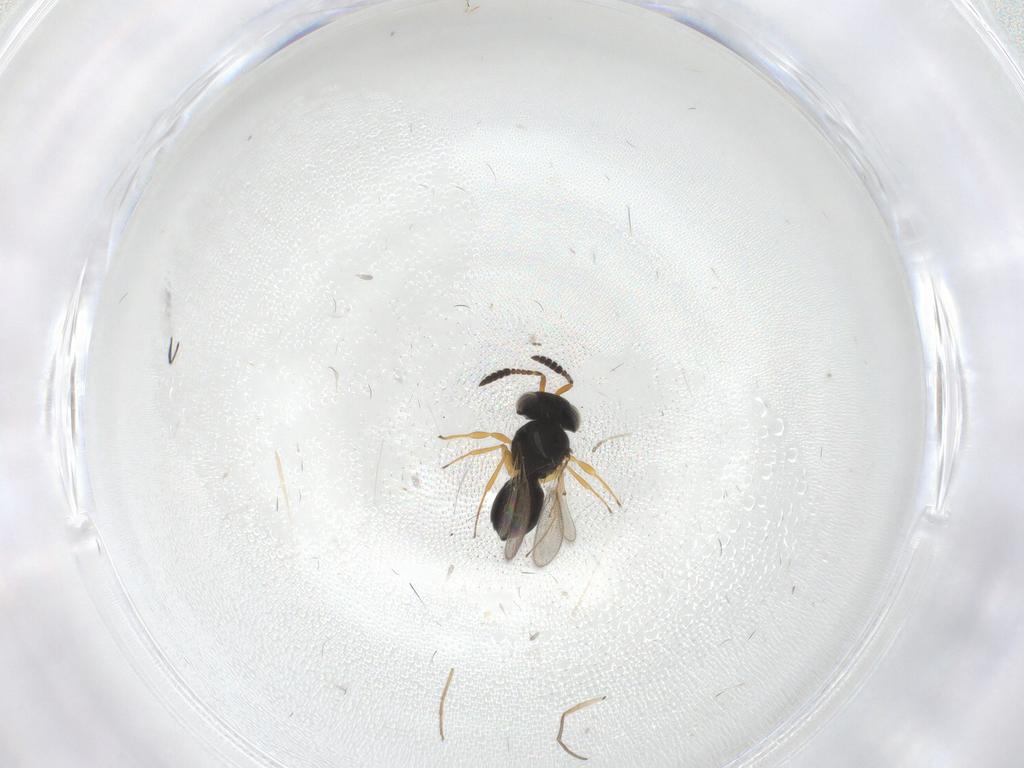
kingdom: Animalia
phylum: Arthropoda
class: Insecta
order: Hymenoptera
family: Scelionidae
